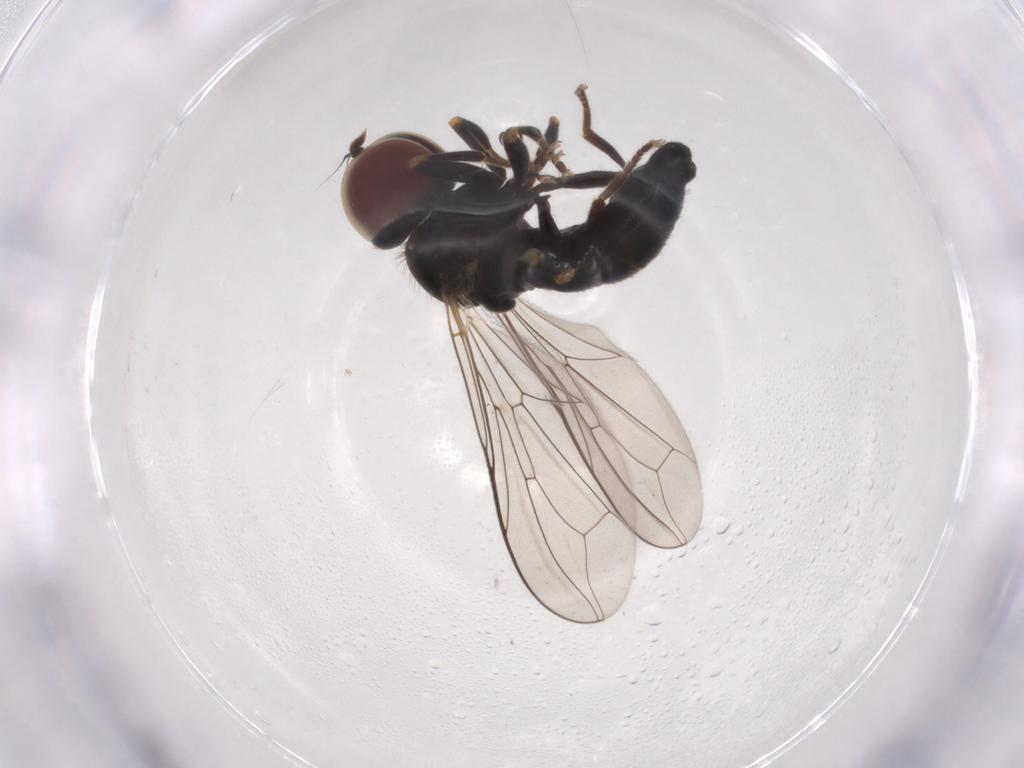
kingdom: Animalia
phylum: Arthropoda
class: Insecta
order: Diptera
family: Pipunculidae
